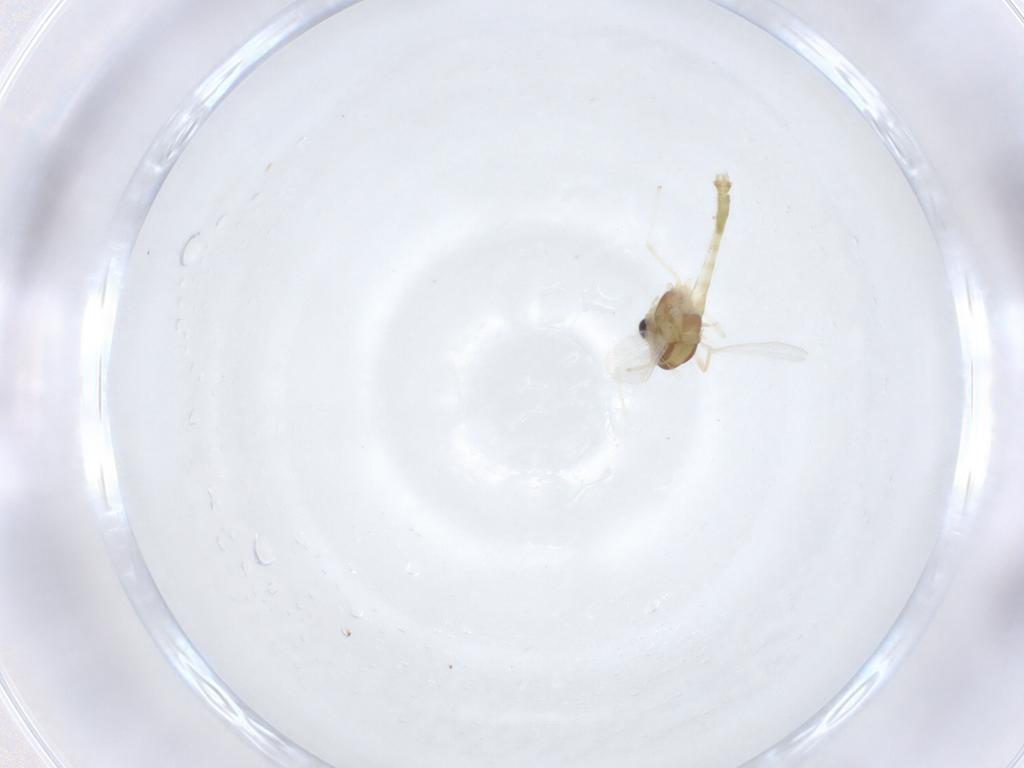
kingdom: Animalia
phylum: Arthropoda
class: Insecta
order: Diptera
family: Chironomidae
